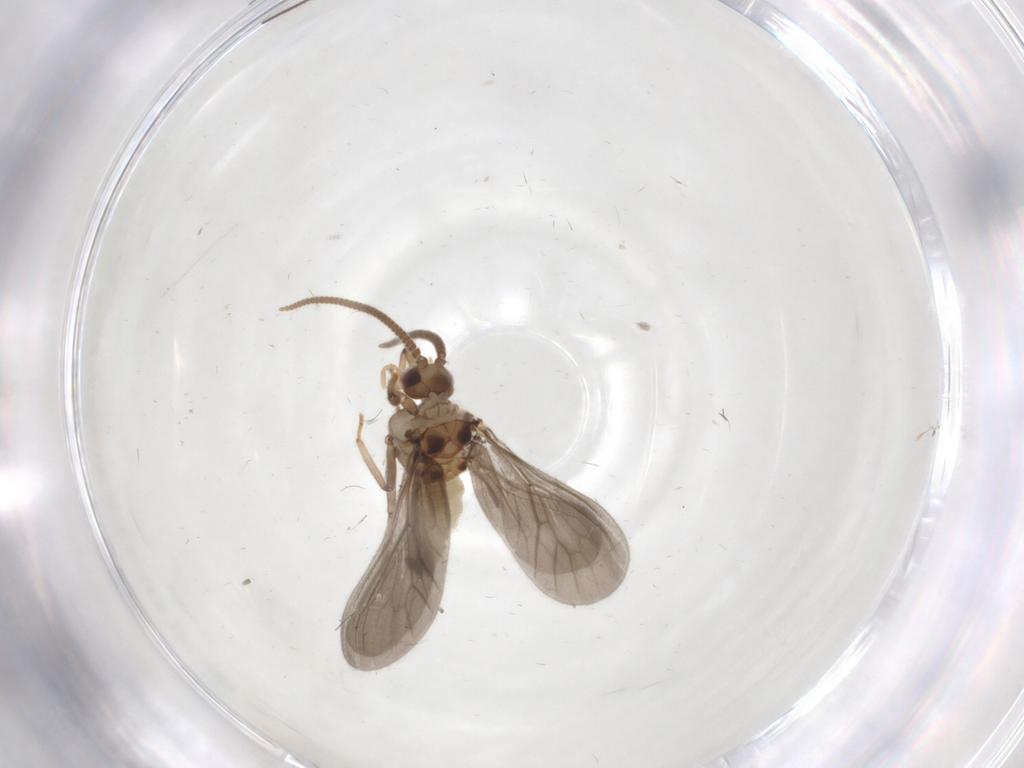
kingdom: Animalia
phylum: Arthropoda
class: Insecta
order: Neuroptera
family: Coniopterygidae
